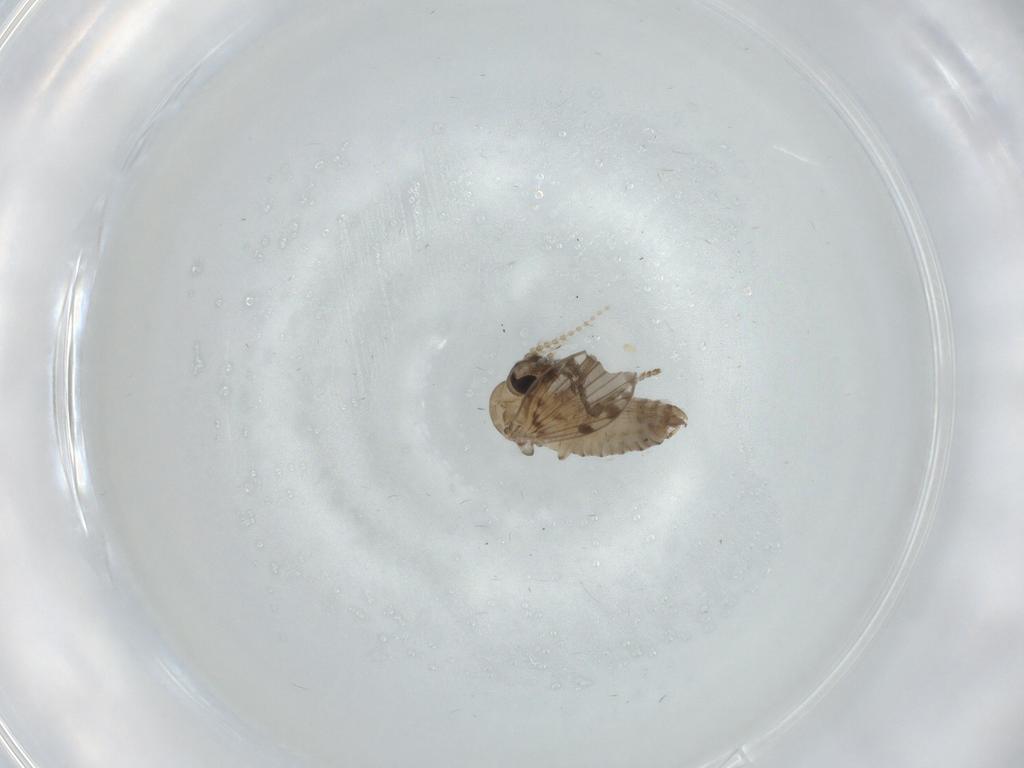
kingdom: Animalia
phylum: Arthropoda
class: Insecta
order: Diptera
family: Psychodidae
